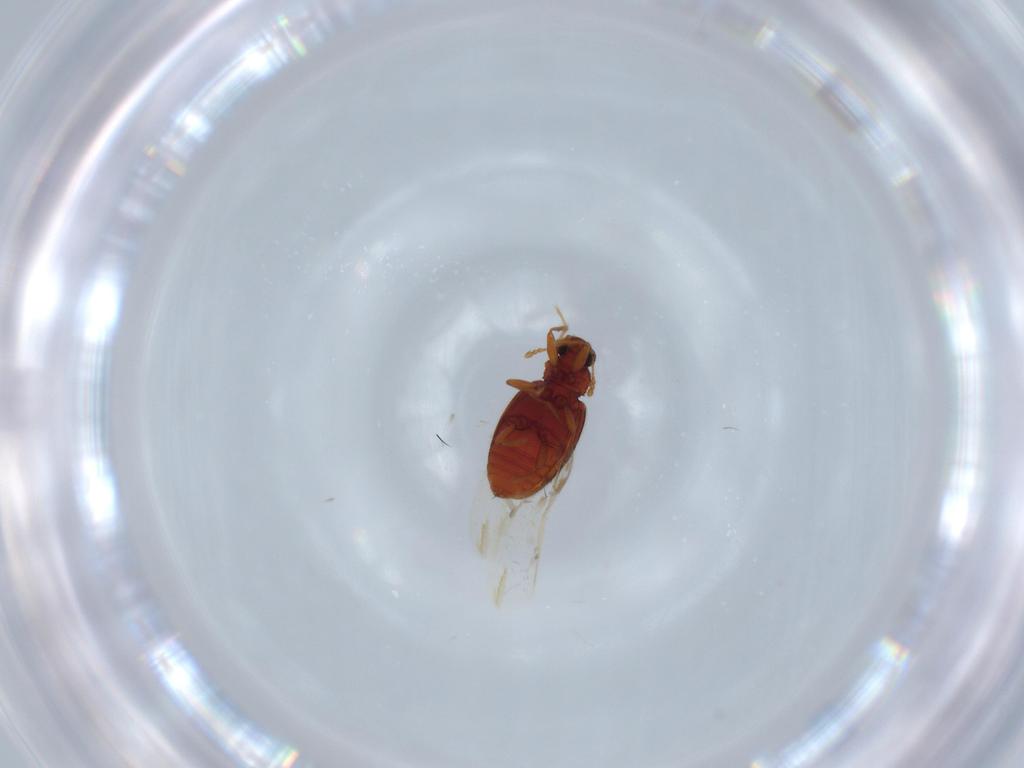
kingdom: Animalia
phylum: Arthropoda
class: Insecta
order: Coleoptera
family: Latridiidae
